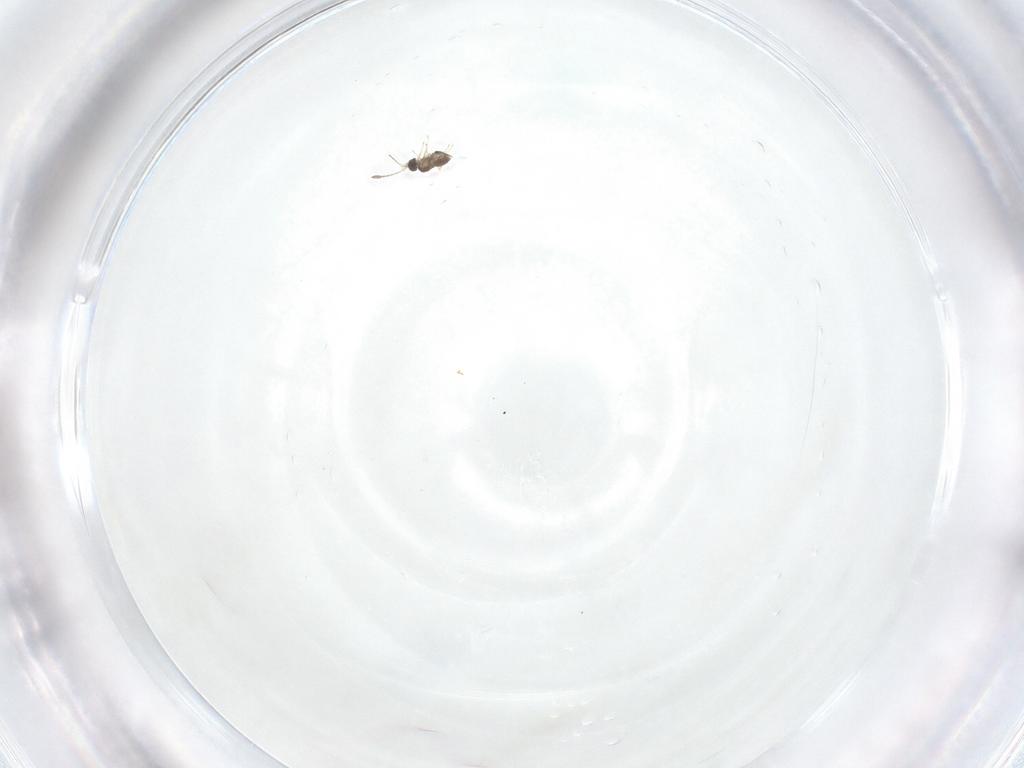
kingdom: Animalia
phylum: Arthropoda
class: Insecta
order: Hymenoptera
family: Trichogrammatidae
